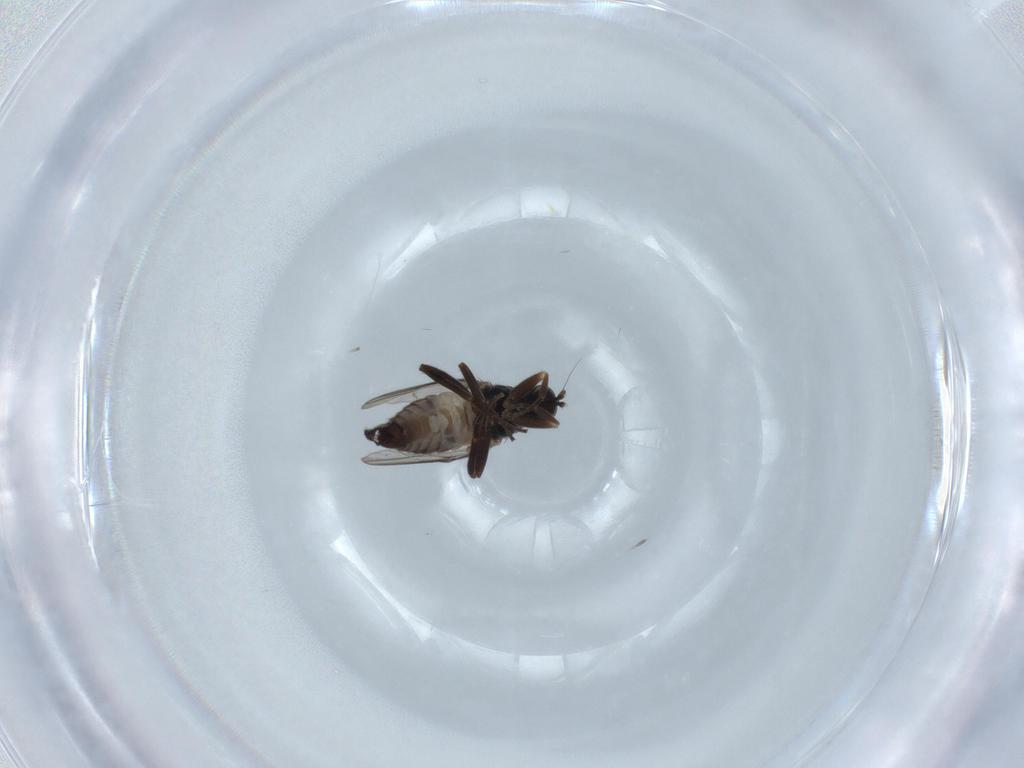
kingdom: Animalia
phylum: Arthropoda
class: Insecta
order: Diptera
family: Hybotidae
